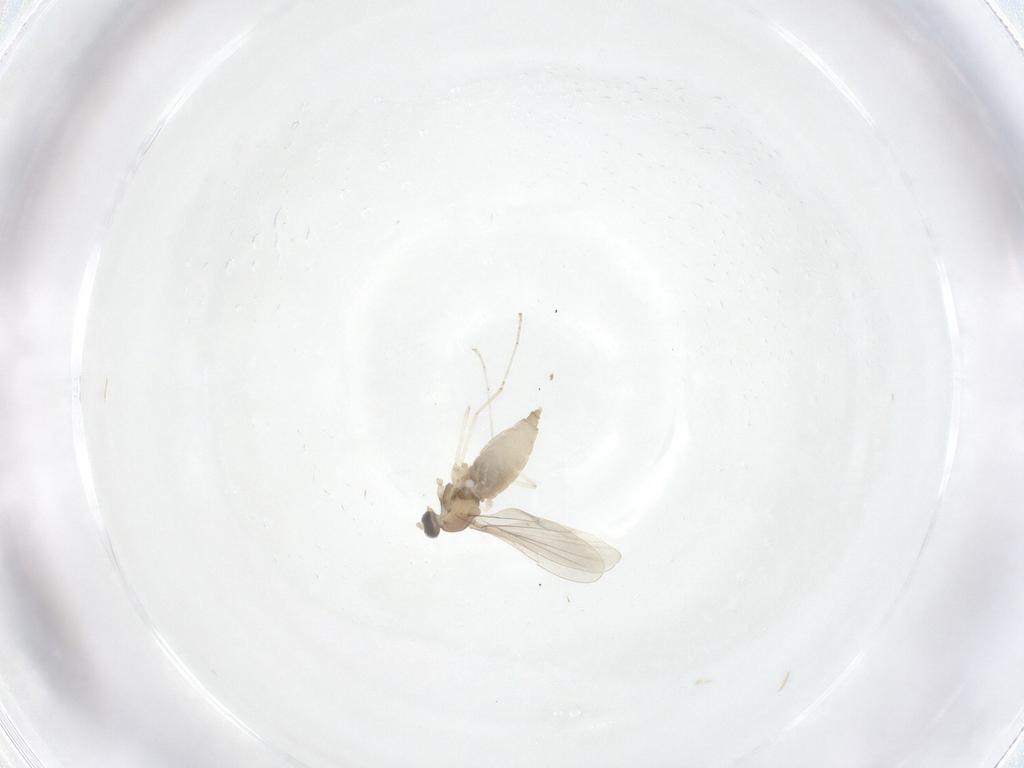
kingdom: Animalia
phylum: Arthropoda
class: Insecta
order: Diptera
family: Cecidomyiidae
